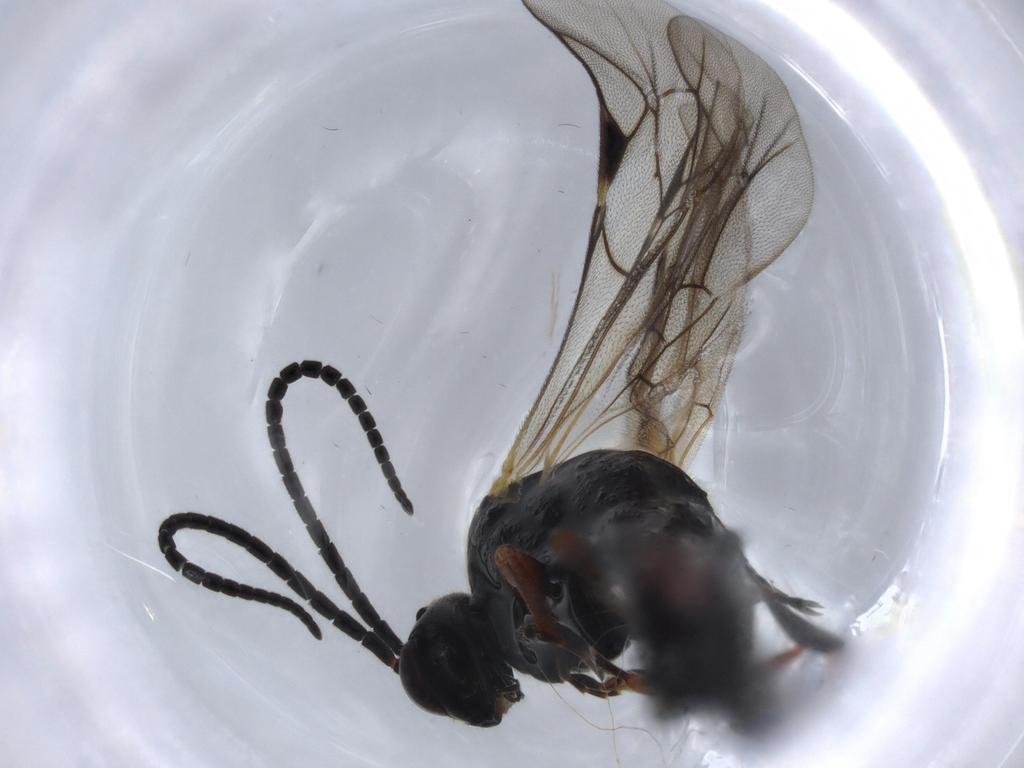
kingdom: Animalia
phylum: Arthropoda
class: Insecta
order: Hymenoptera
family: Ichneumonidae
